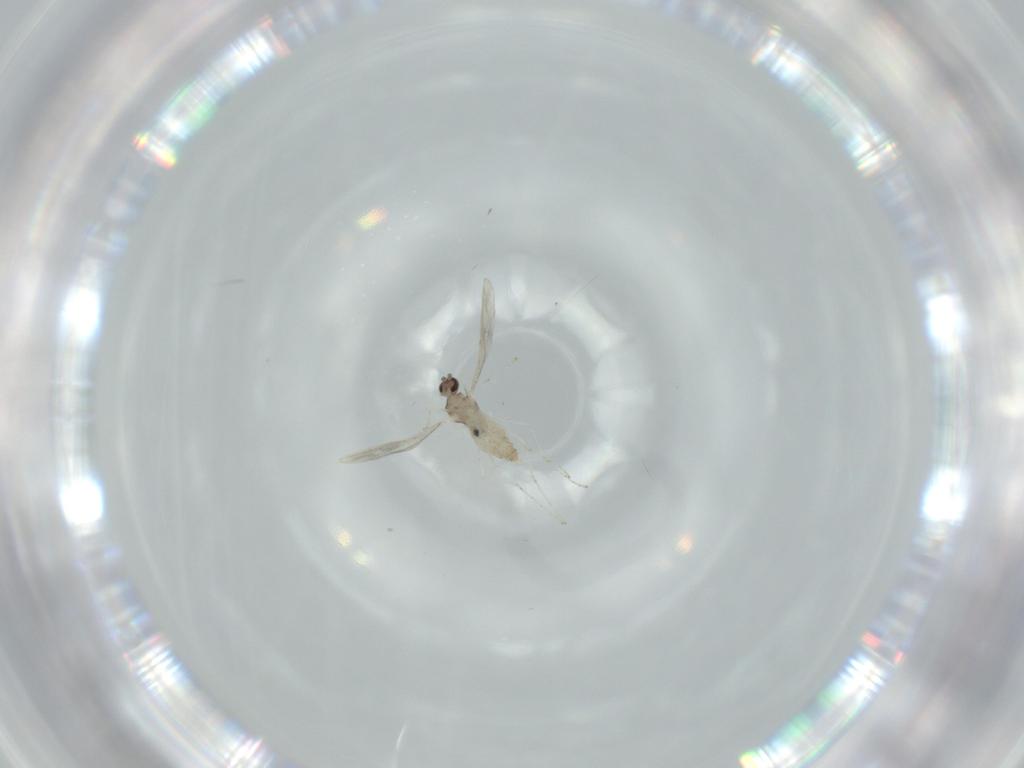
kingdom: Animalia
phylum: Arthropoda
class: Insecta
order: Diptera
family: Cecidomyiidae
